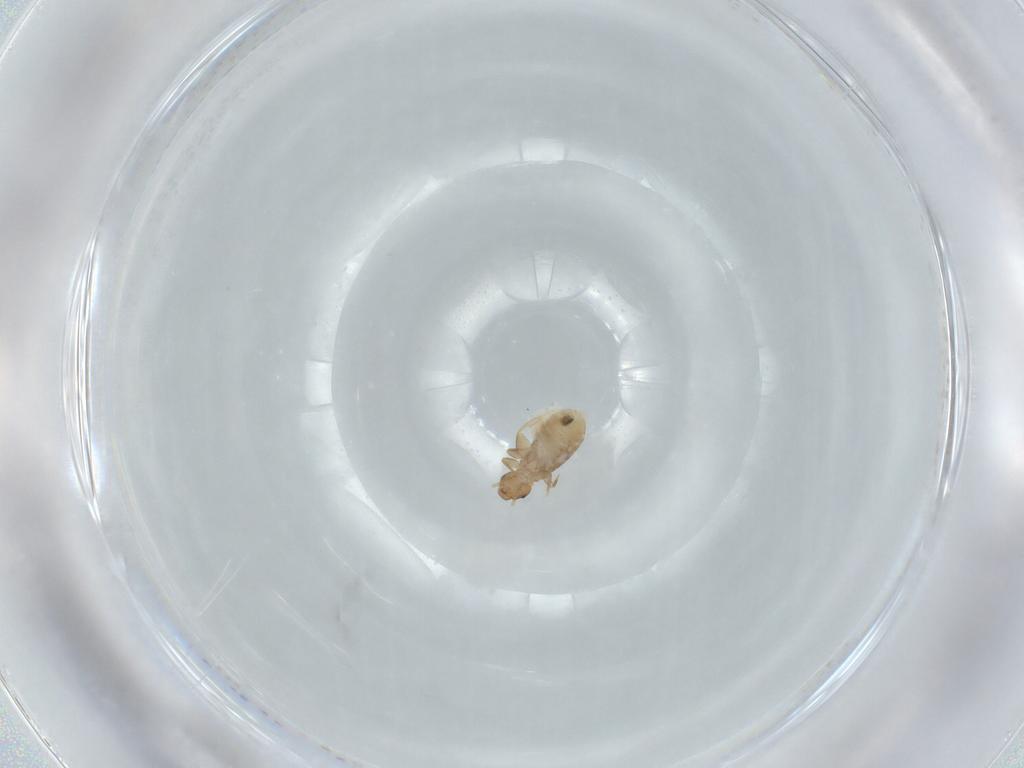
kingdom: Animalia
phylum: Arthropoda
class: Insecta
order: Psocodea
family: Liposcelididae
